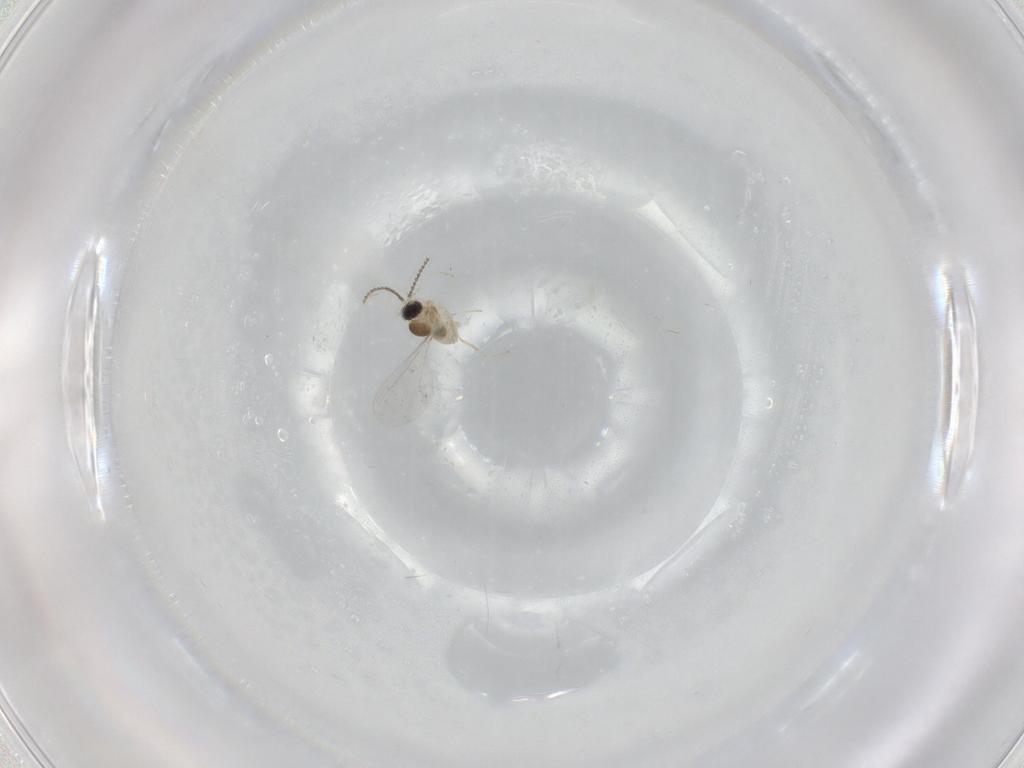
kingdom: Animalia
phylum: Arthropoda
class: Insecta
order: Diptera
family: Cecidomyiidae
